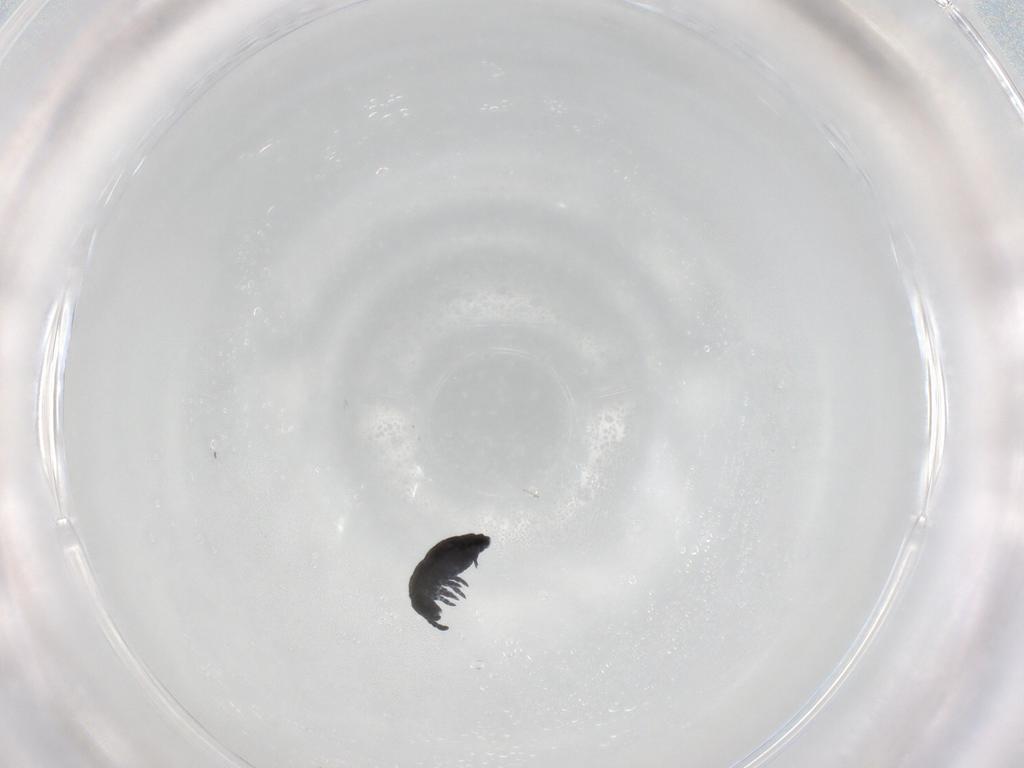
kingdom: Animalia
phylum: Arthropoda
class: Collembola
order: Poduromorpha
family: Hypogastruridae
